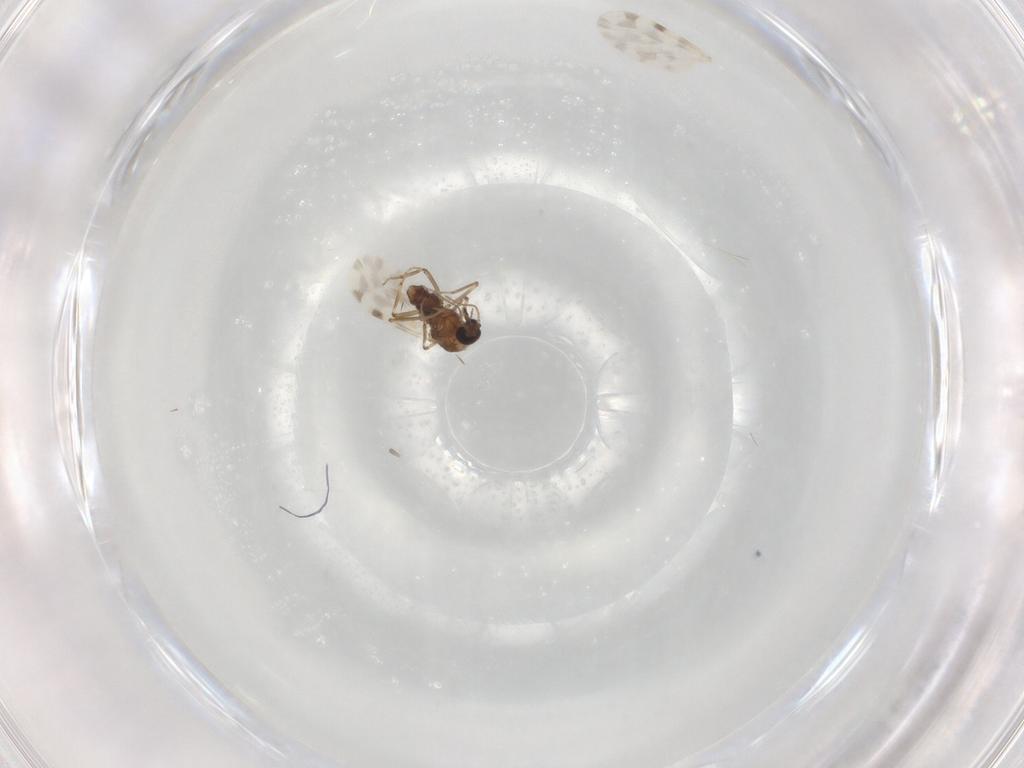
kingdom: Animalia
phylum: Arthropoda
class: Insecta
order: Diptera
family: Ceratopogonidae
